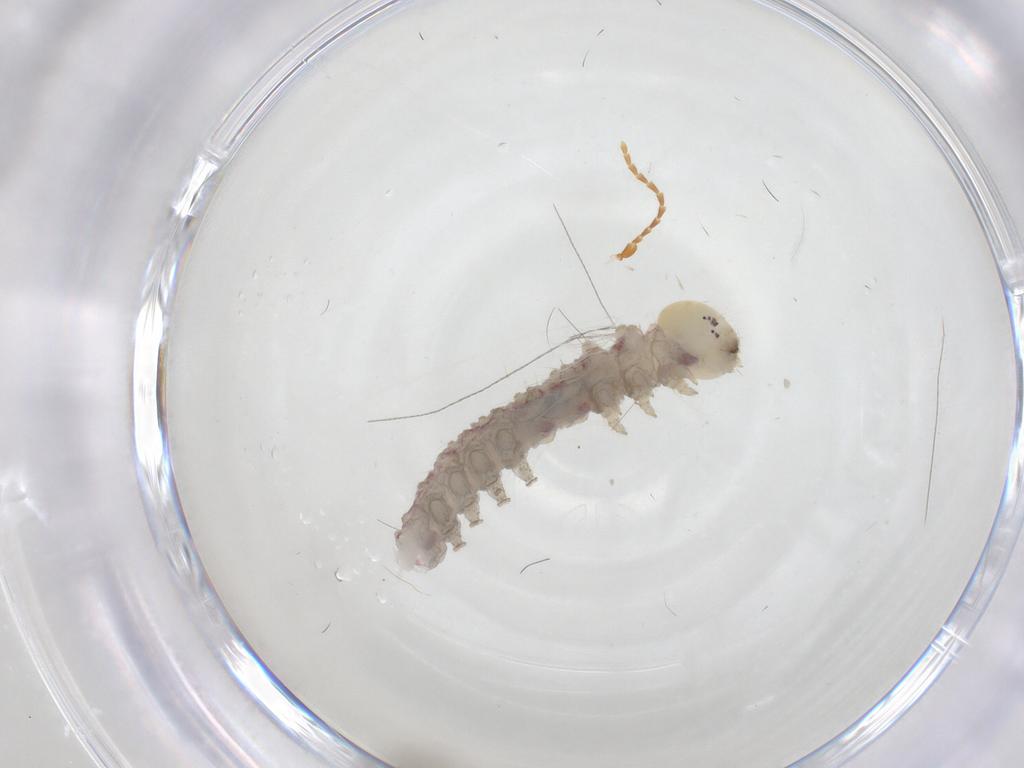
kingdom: Animalia
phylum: Arthropoda
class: Insecta
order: Lepidoptera
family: Erebidae
